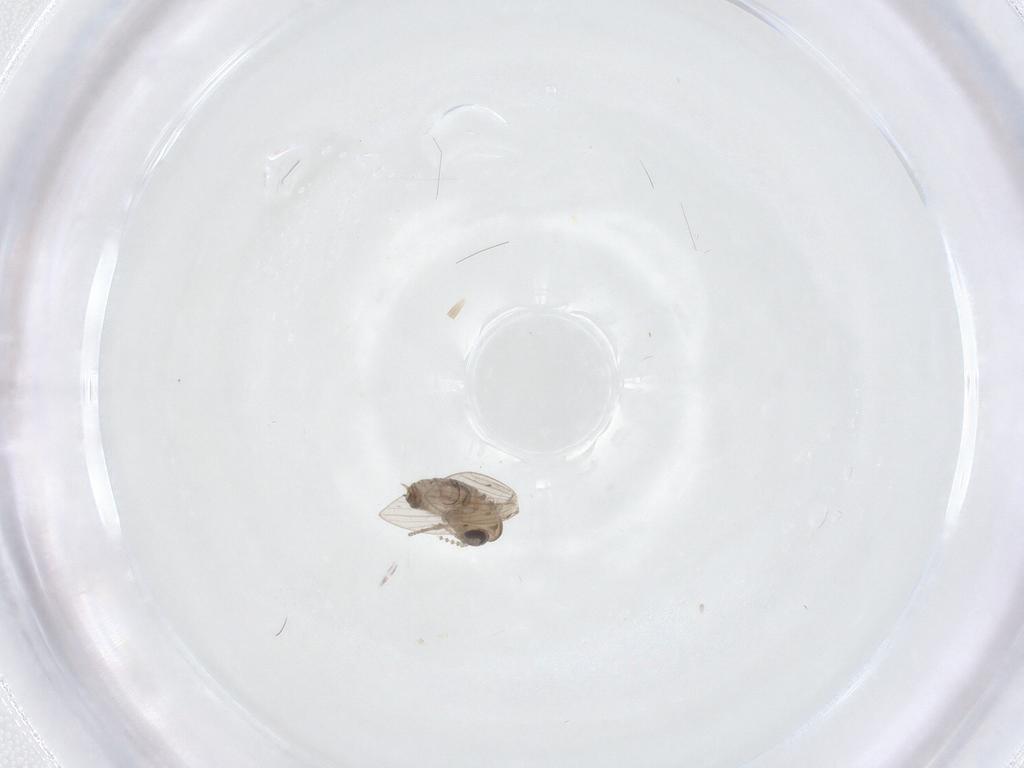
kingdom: Animalia
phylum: Arthropoda
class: Insecta
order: Diptera
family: Psychodidae
